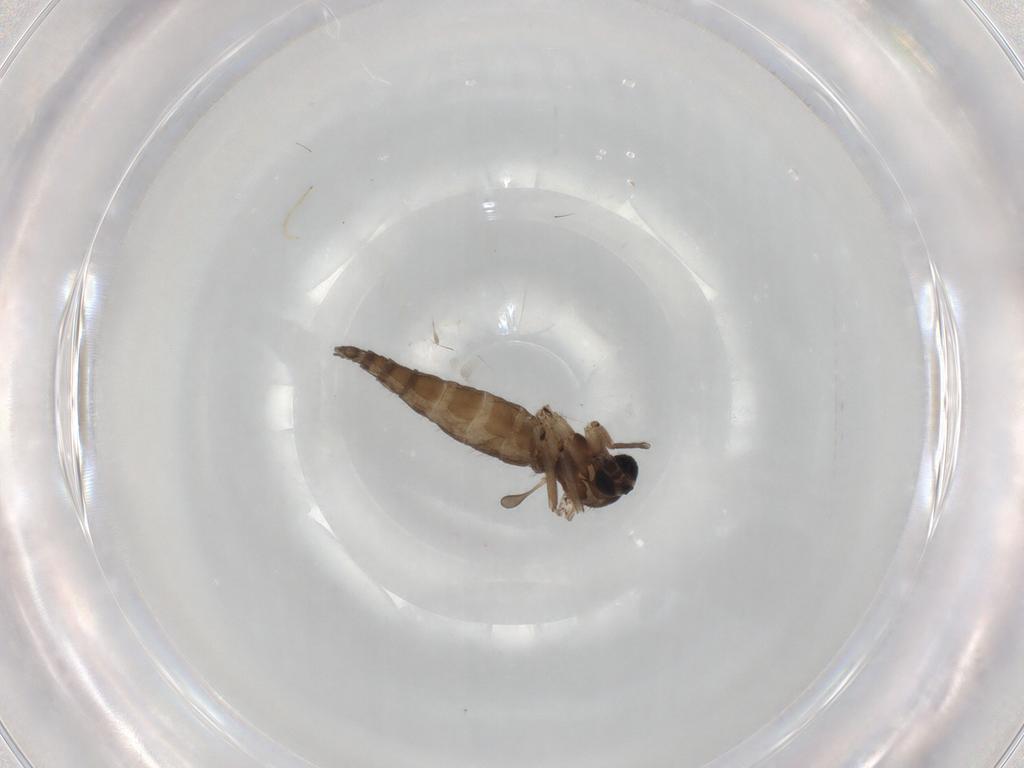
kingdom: Animalia
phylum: Arthropoda
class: Insecta
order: Diptera
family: Sciaridae
